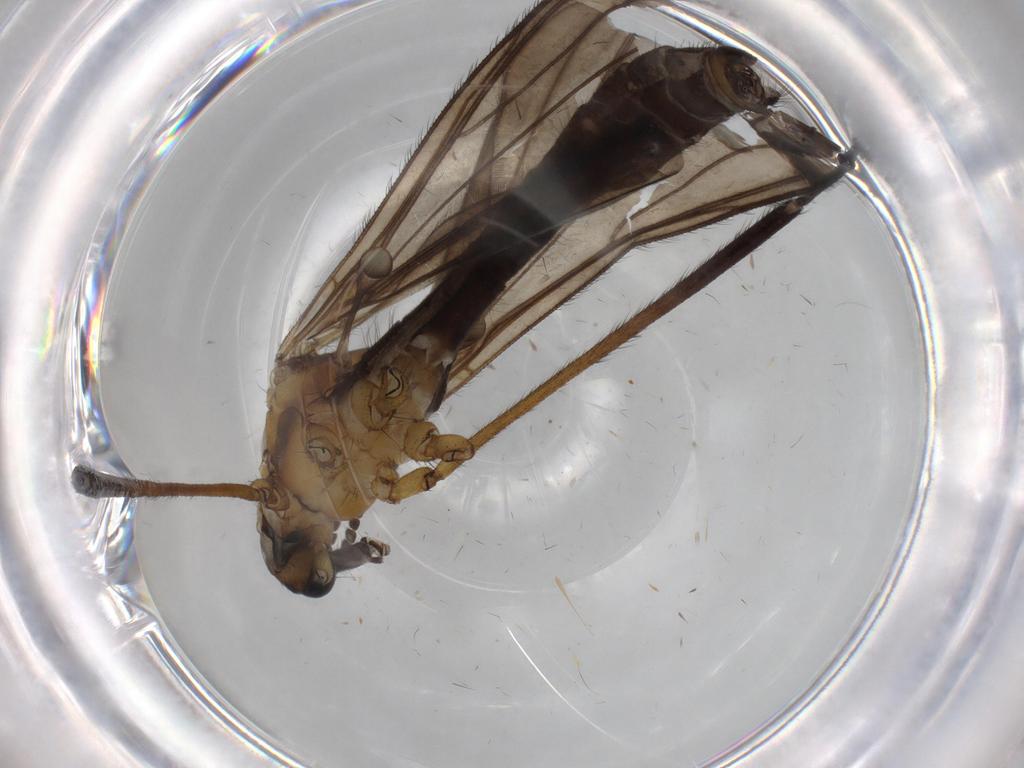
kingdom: Animalia
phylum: Arthropoda
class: Insecta
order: Diptera
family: Limoniidae
